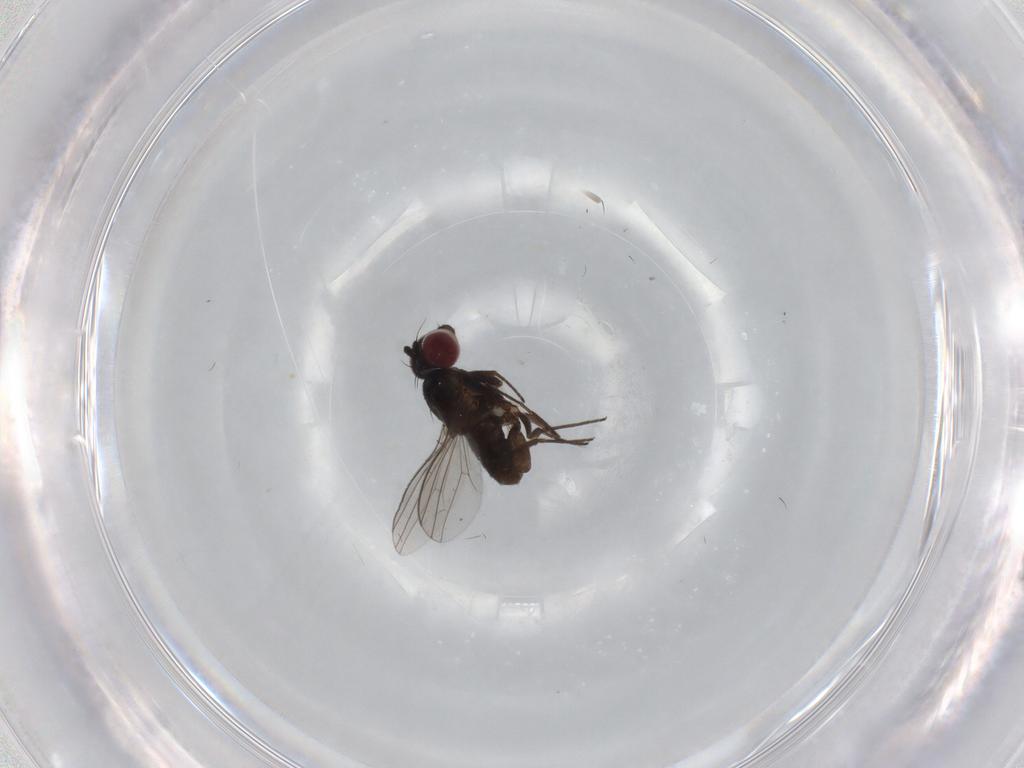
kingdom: Animalia
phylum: Arthropoda
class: Insecta
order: Diptera
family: Dolichopodidae
